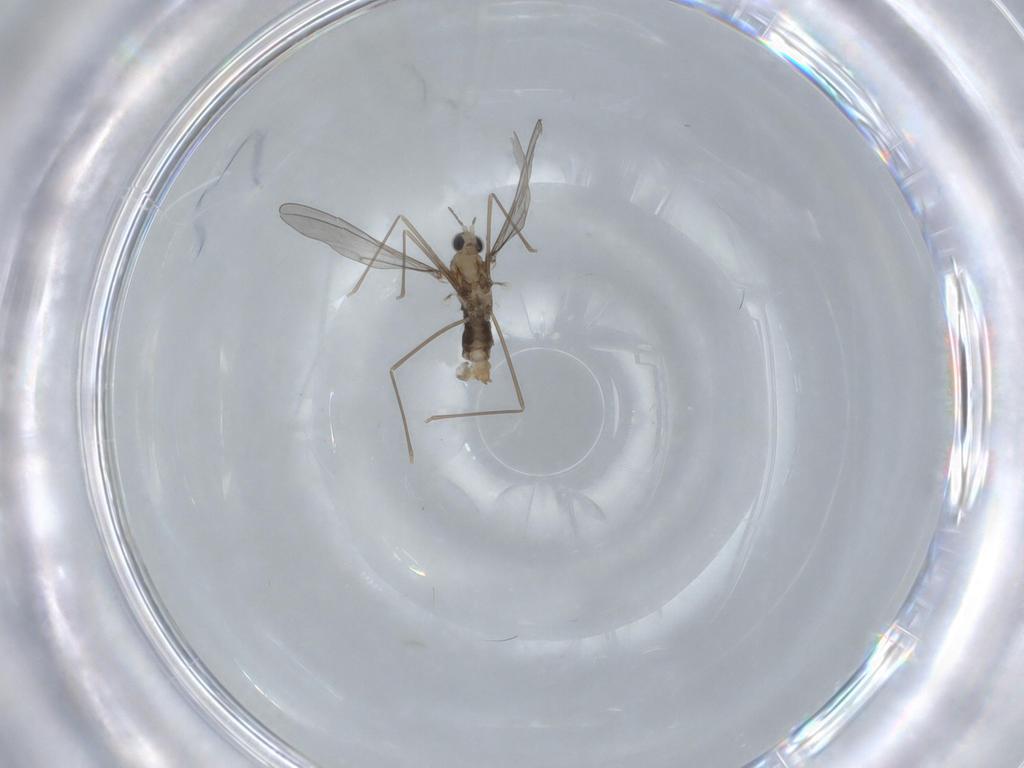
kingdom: Animalia
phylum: Arthropoda
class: Insecta
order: Diptera
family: Cecidomyiidae
